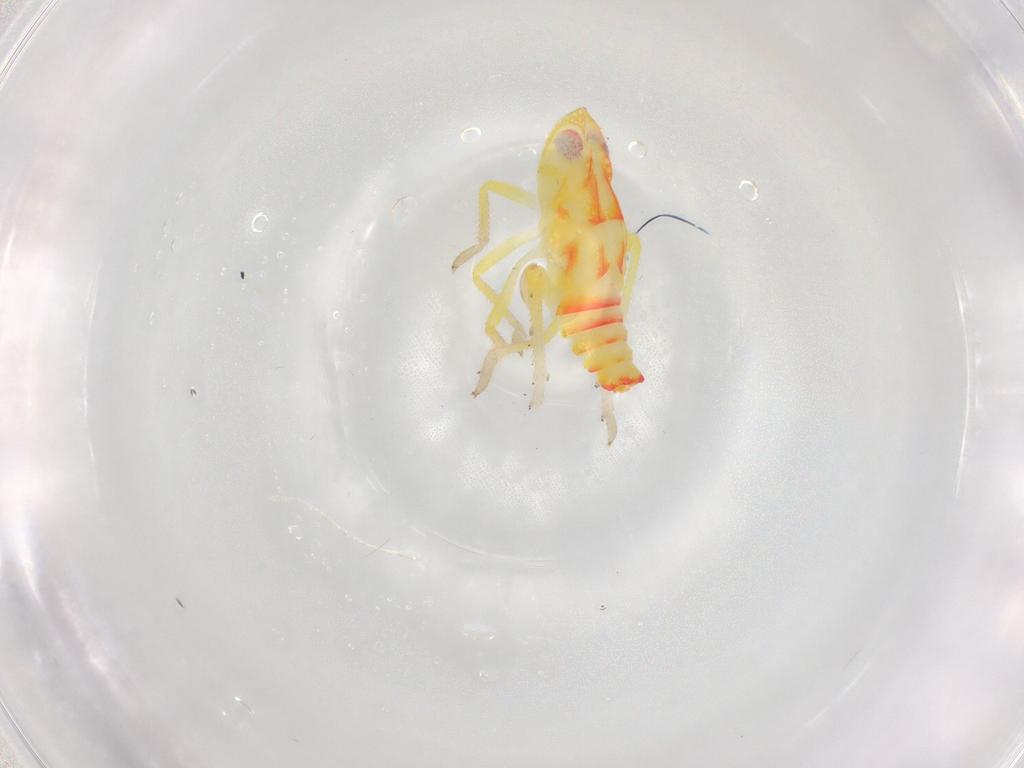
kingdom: Animalia
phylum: Arthropoda
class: Insecta
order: Hemiptera
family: Tropiduchidae
